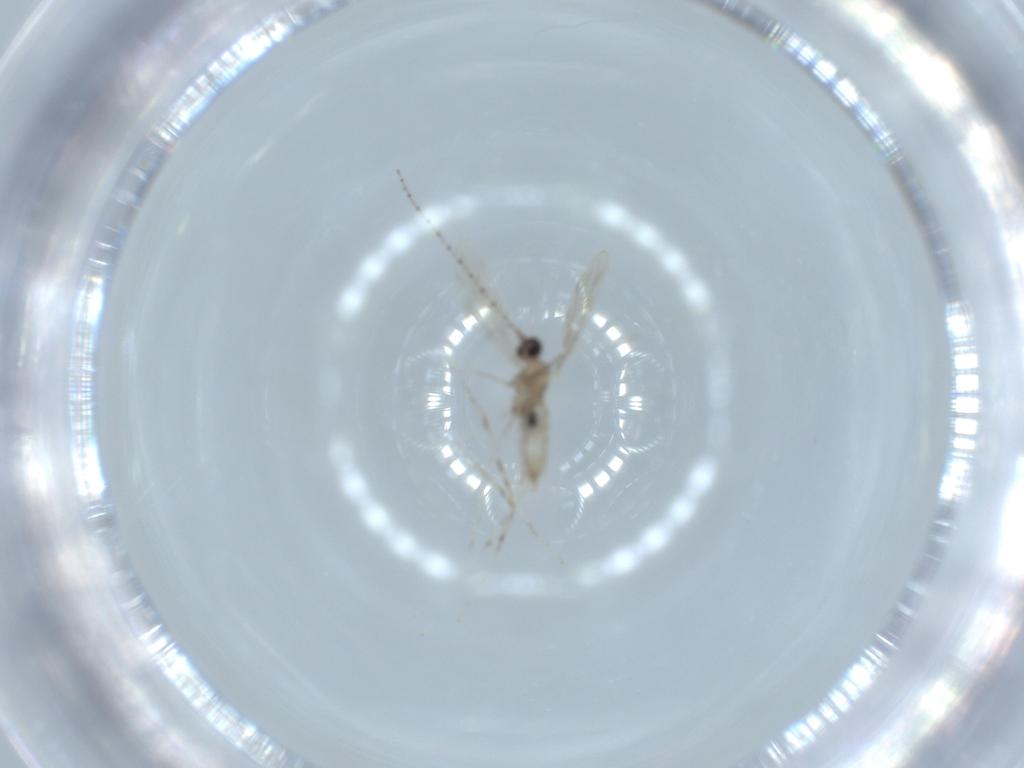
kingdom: Animalia
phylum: Arthropoda
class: Insecta
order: Diptera
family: Cecidomyiidae
